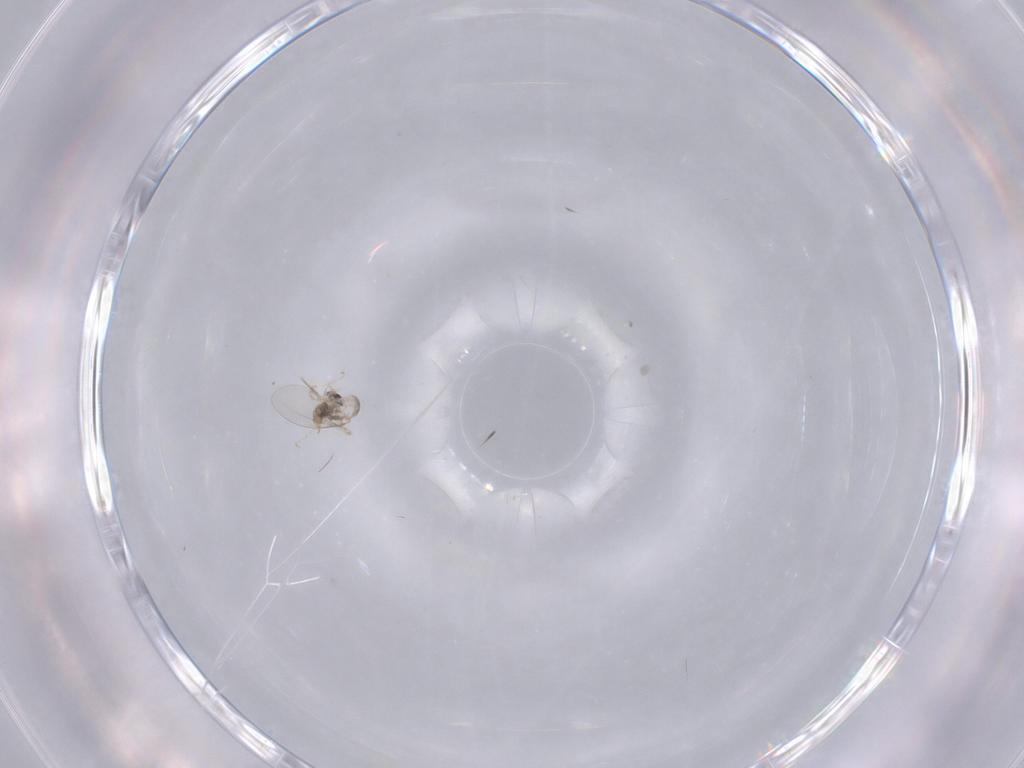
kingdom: Animalia
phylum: Arthropoda
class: Insecta
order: Diptera
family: Cecidomyiidae
